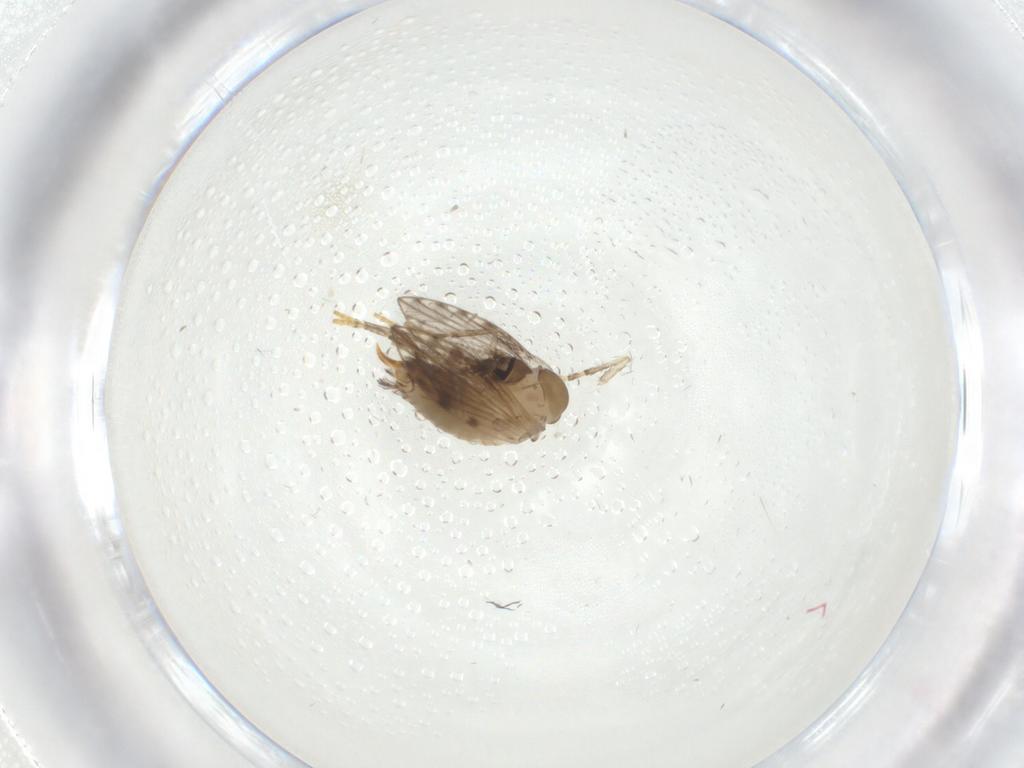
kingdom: Animalia
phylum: Arthropoda
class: Insecta
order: Diptera
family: Psychodidae
